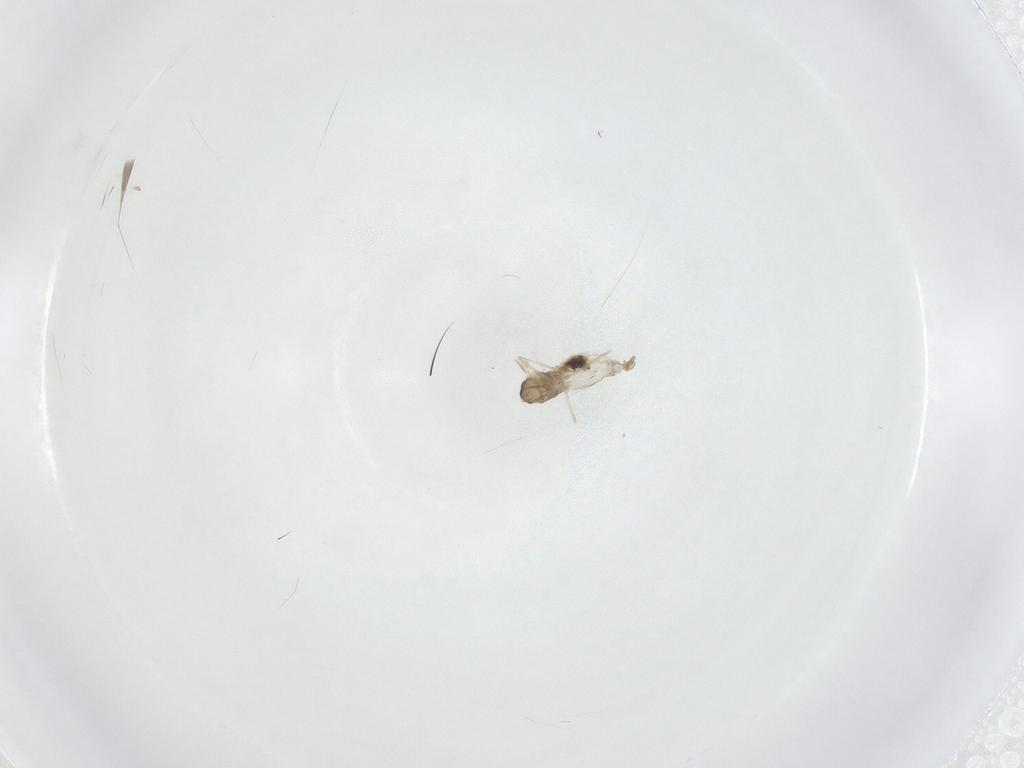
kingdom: Animalia
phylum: Arthropoda
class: Insecta
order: Diptera
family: Cecidomyiidae
